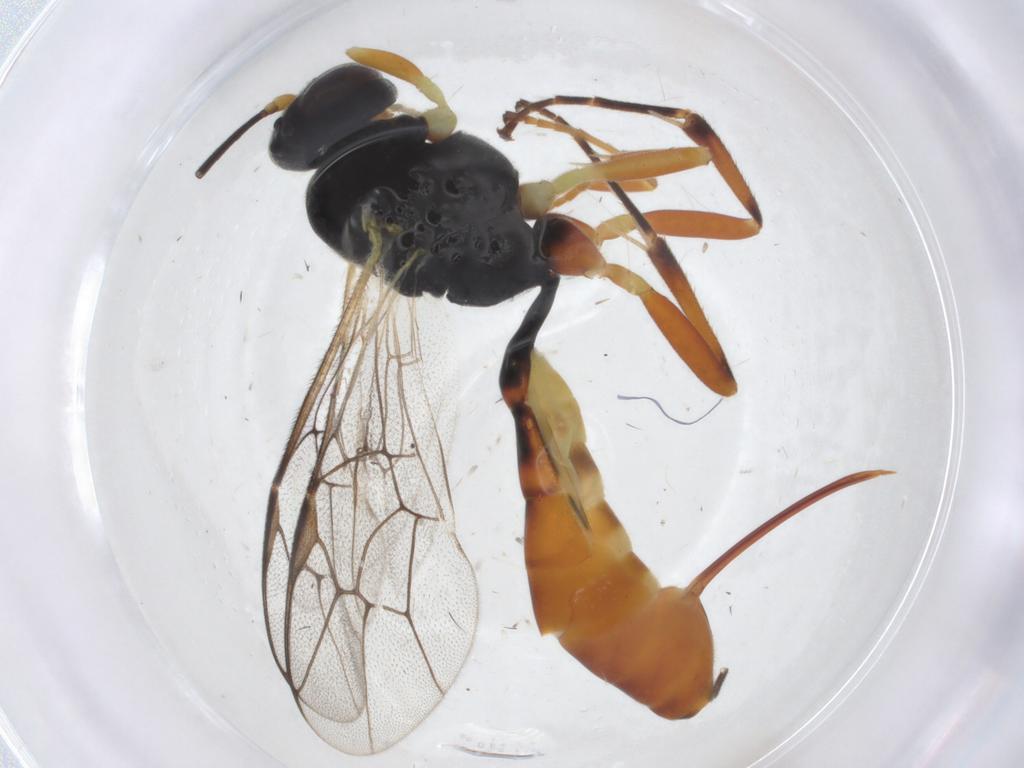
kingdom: Animalia
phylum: Arthropoda
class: Insecta
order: Hymenoptera
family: Ichneumonidae
